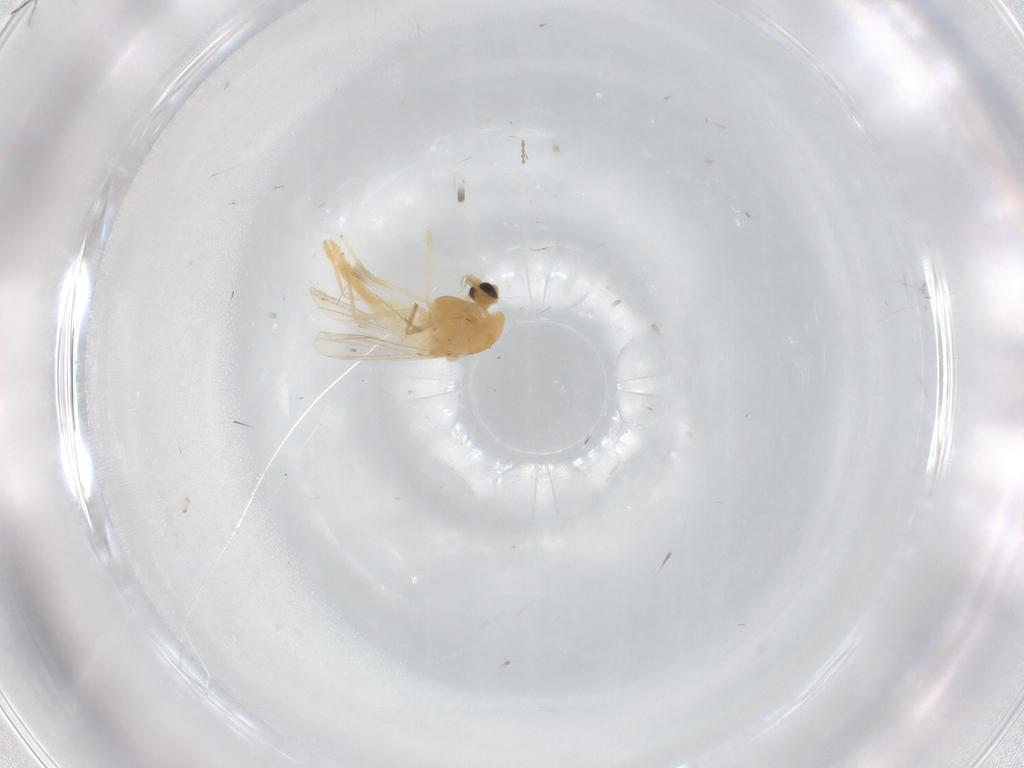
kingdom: Animalia
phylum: Arthropoda
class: Insecta
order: Diptera
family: Chironomidae
